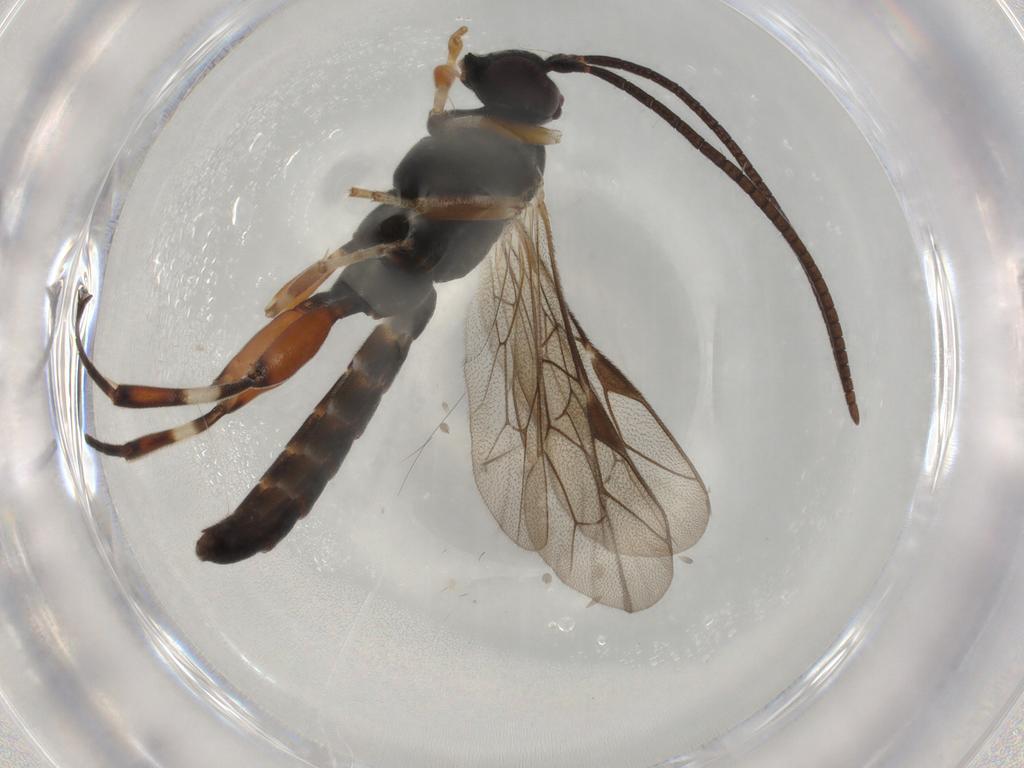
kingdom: Animalia
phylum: Arthropoda
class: Insecta
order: Hymenoptera
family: Ichneumonidae
